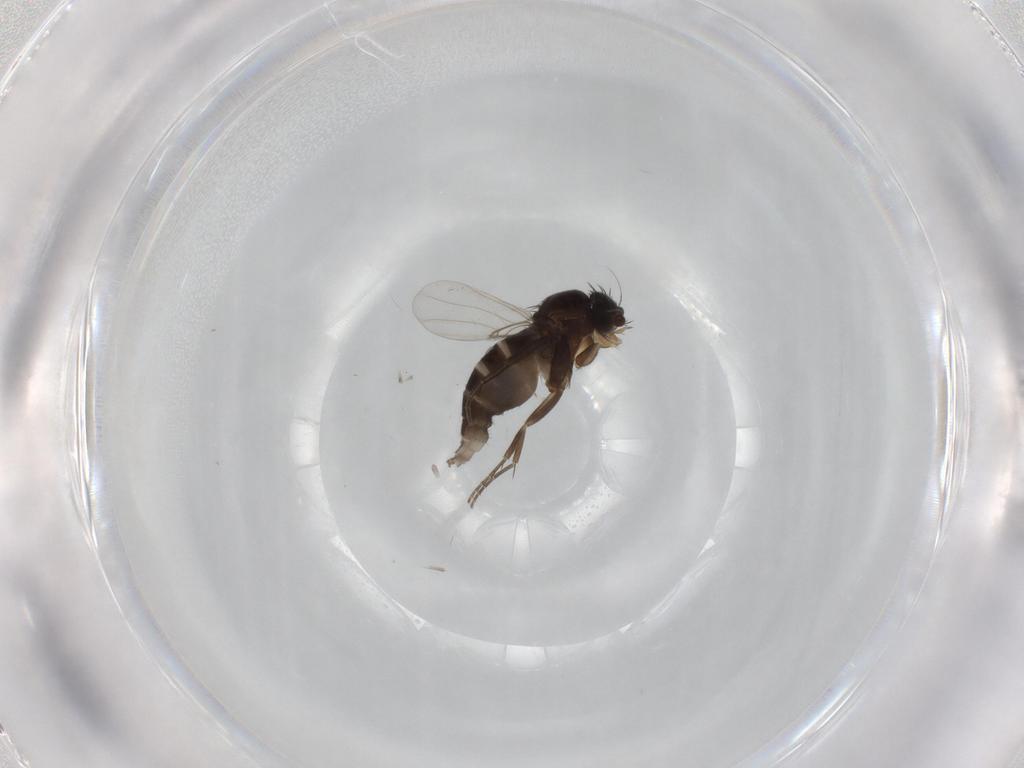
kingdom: Animalia
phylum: Arthropoda
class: Insecta
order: Diptera
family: Phoridae
